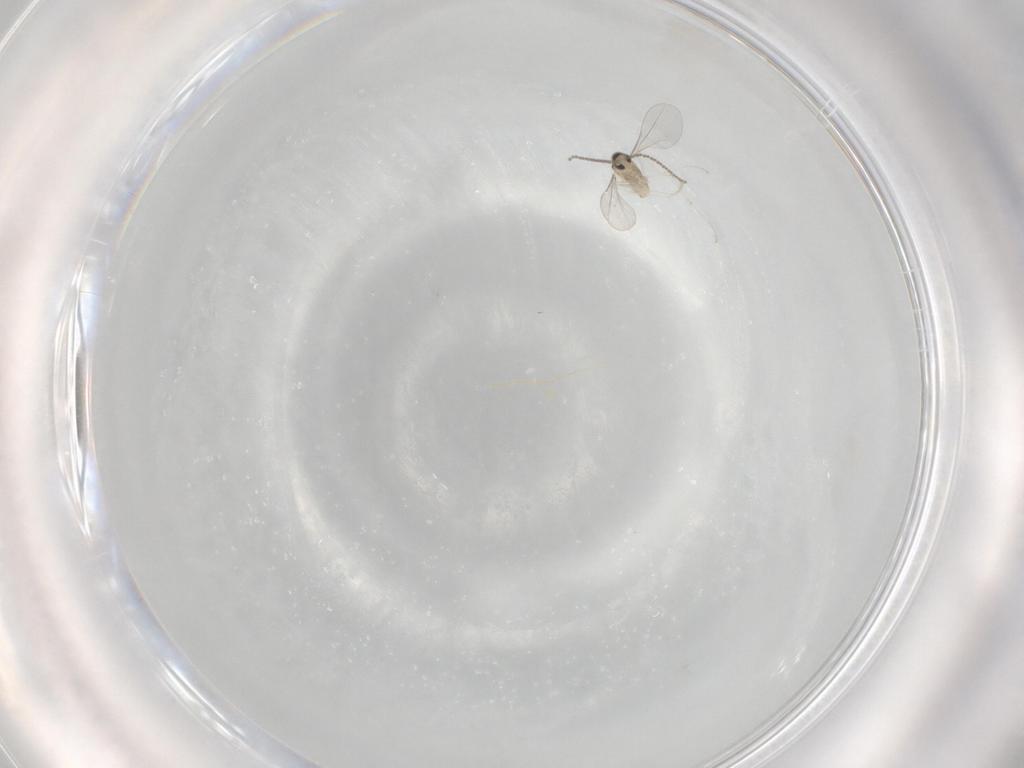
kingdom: Animalia
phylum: Arthropoda
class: Insecta
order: Diptera
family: Cecidomyiidae
